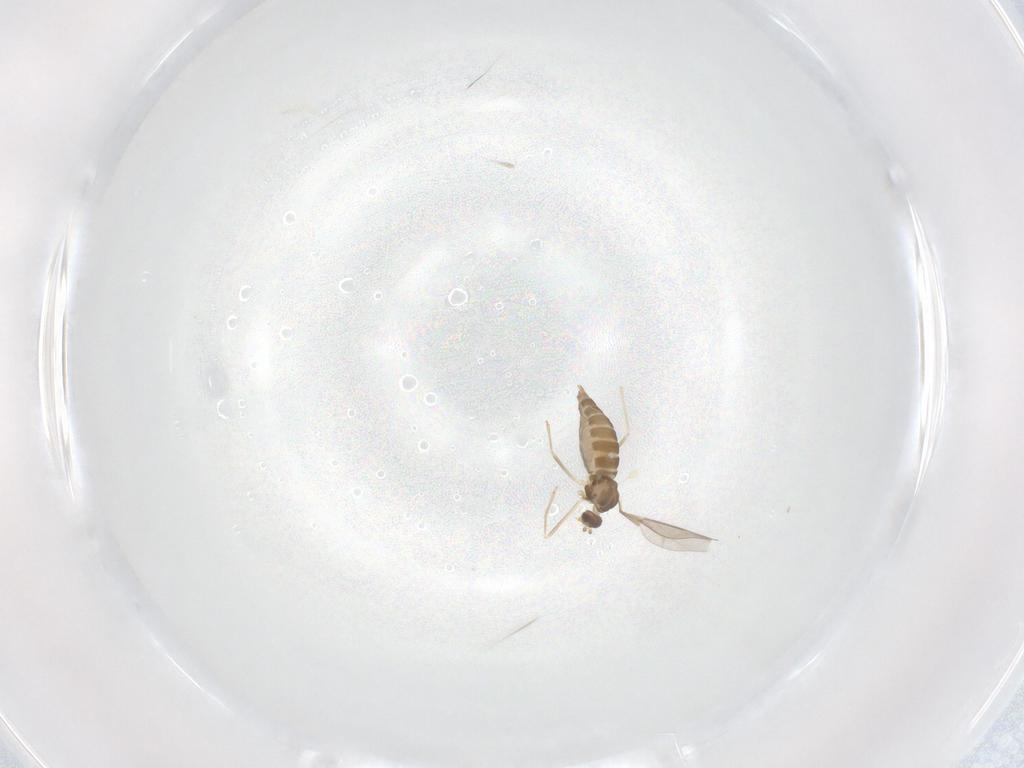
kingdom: Animalia
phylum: Arthropoda
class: Insecta
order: Diptera
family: Cecidomyiidae
